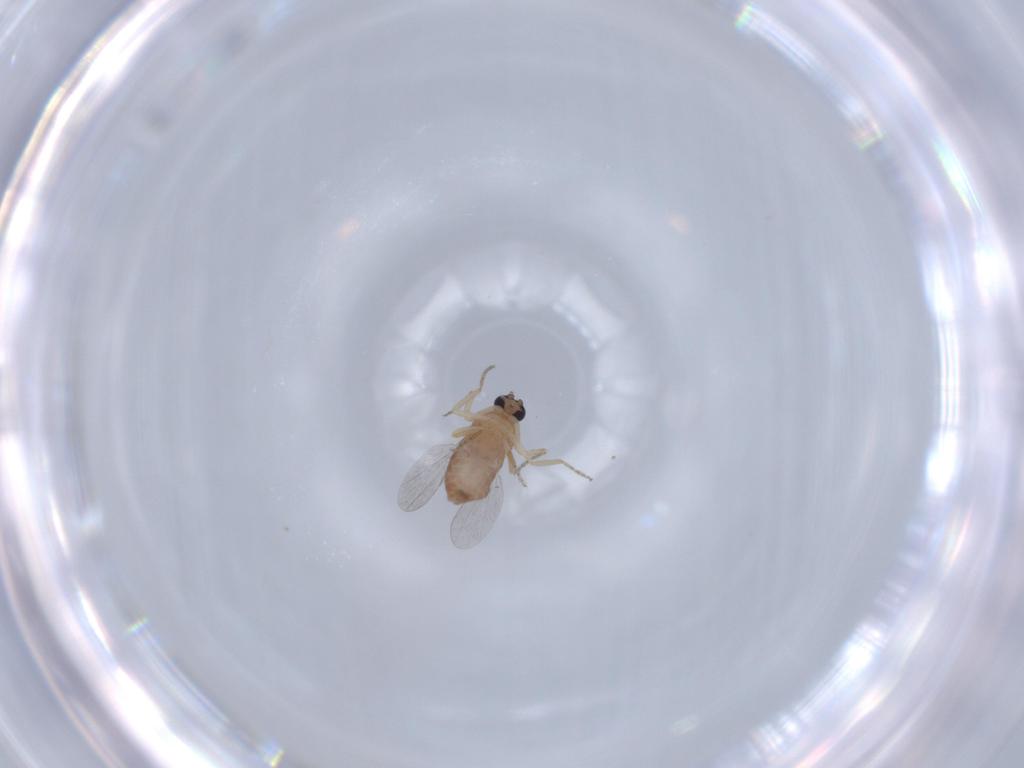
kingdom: Animalia
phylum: Arthropoda
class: Insecta
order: Diptera
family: Ceratopogonidae
